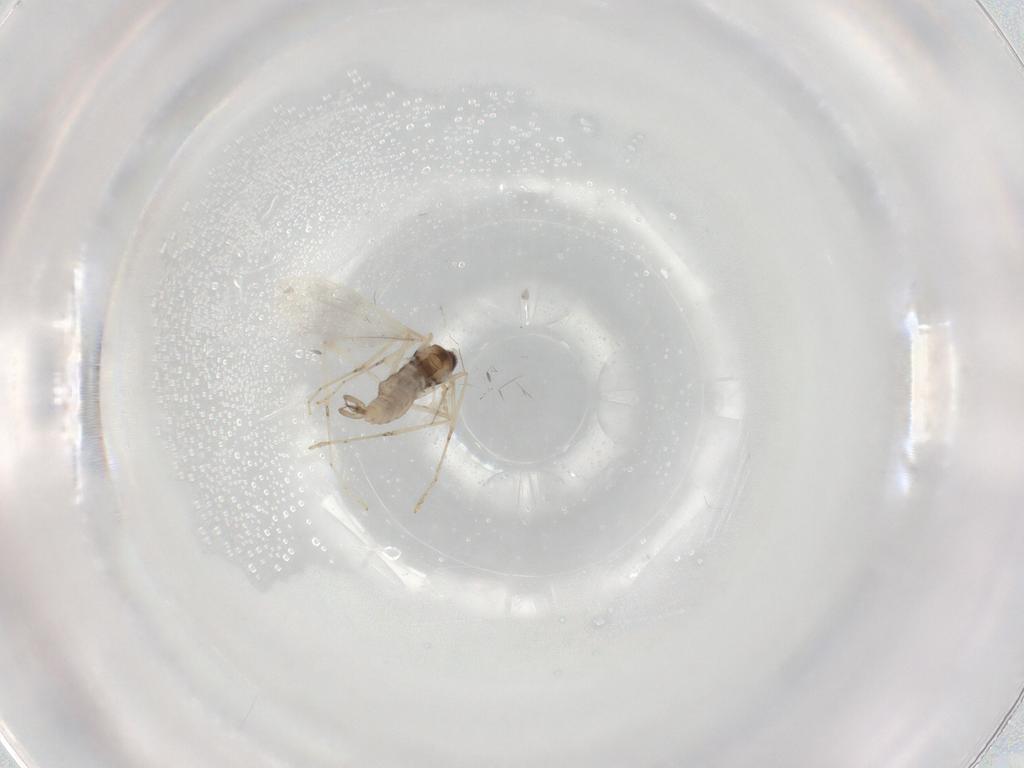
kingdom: Animalia
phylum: Arthropoda
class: Insecta
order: Diptera
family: Cecidomyiidae
